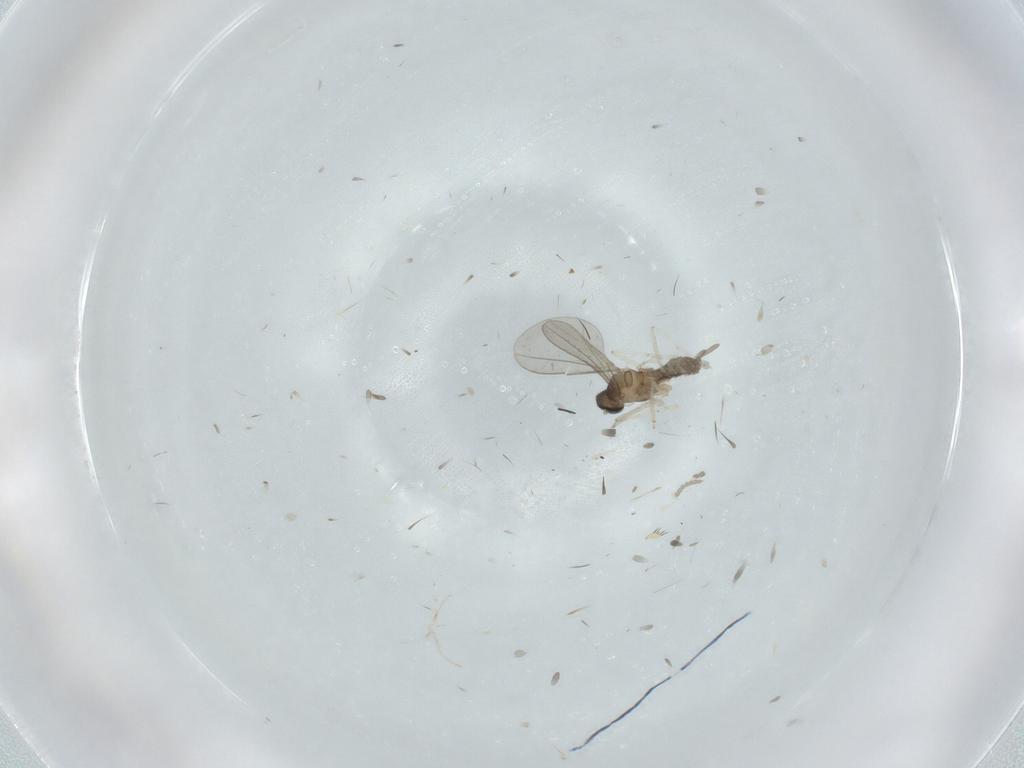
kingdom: Animalia
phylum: Arthropoda
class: Insecta
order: Diptera
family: Cecidomyiidae
